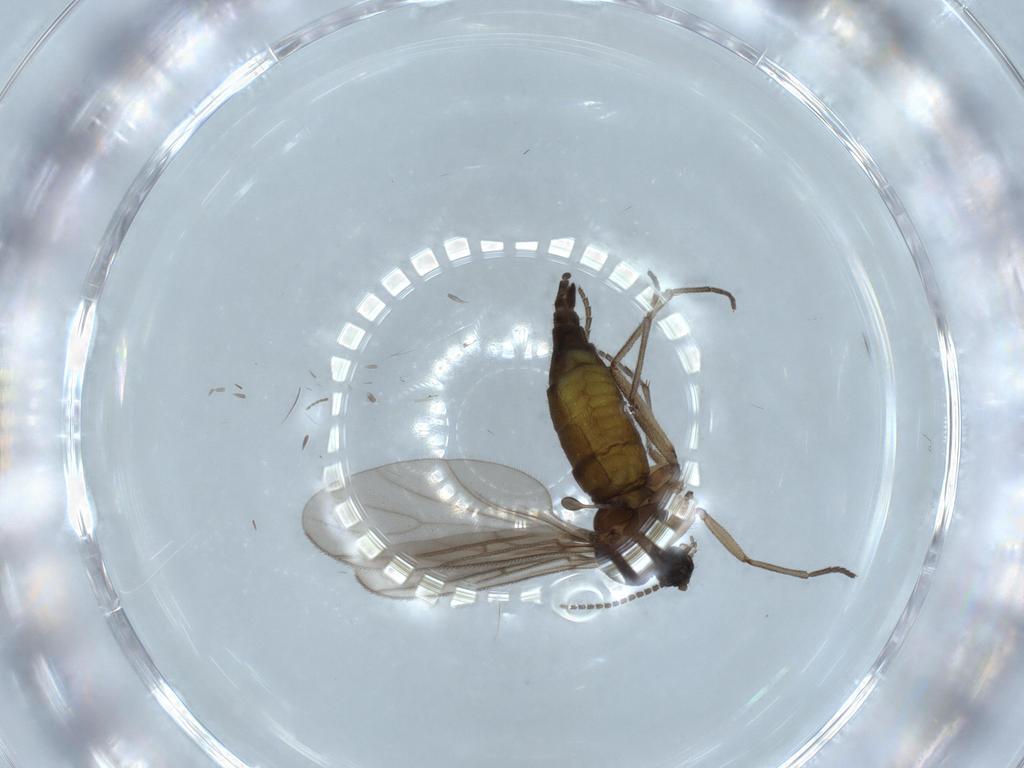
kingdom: Animalia
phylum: Arthropoda
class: Insecta
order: Diptera
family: Sciaridae
